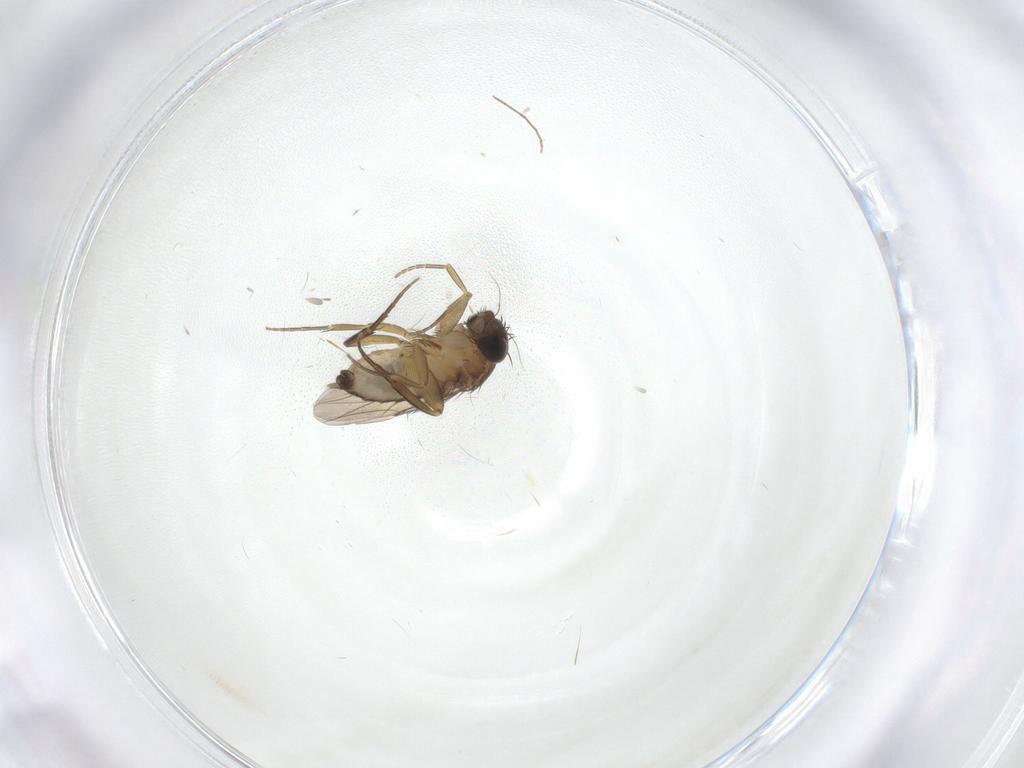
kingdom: Animalia
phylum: Arthropoda
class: Insecta
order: Diptera
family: Phoridae
